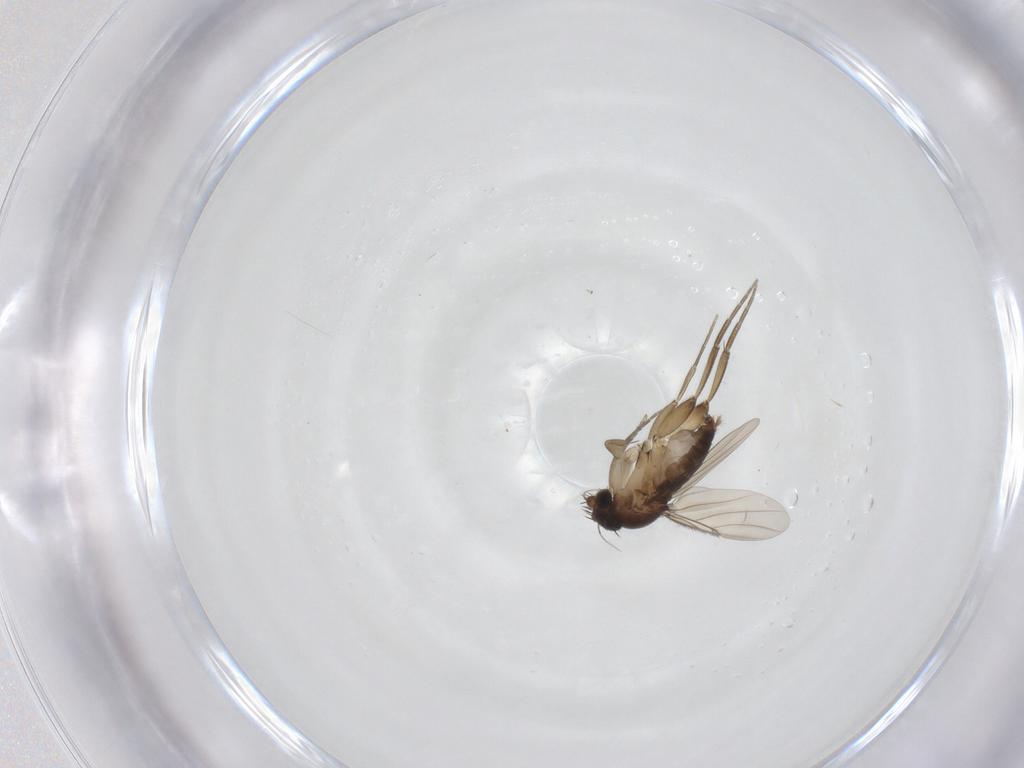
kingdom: Animalia
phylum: Arthropoda
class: Insecta
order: Diptera
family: Phoridae
